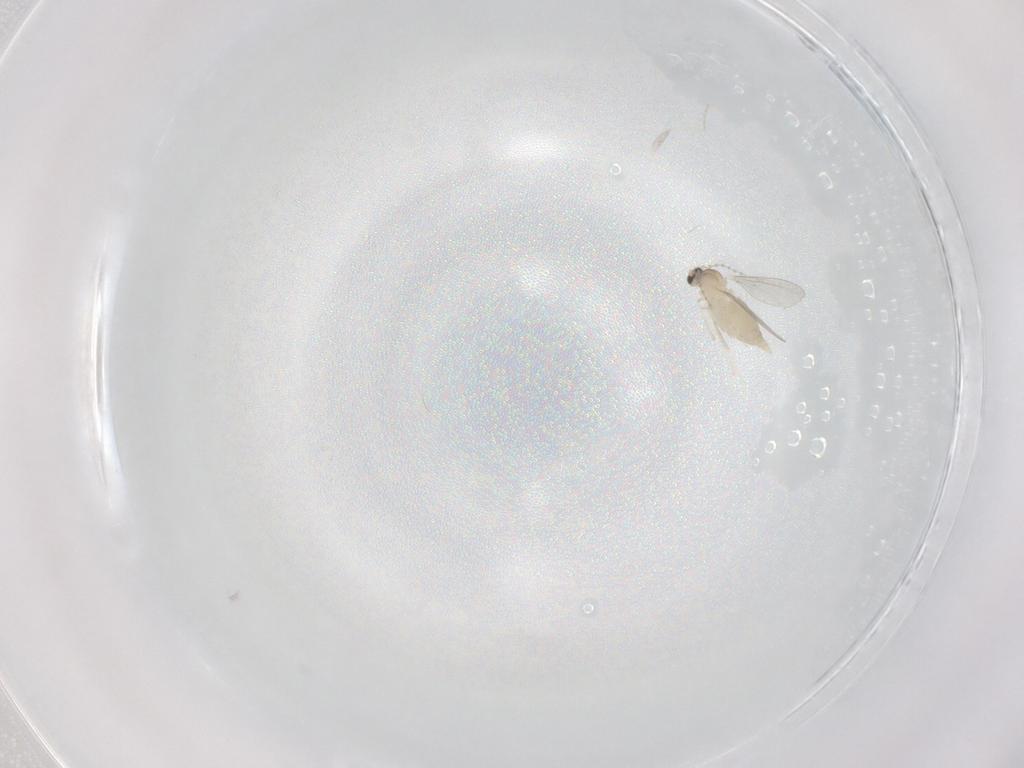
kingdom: Animalia
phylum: Arthropoda
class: Insecta
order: Diptera
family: Cecidomyiidae
